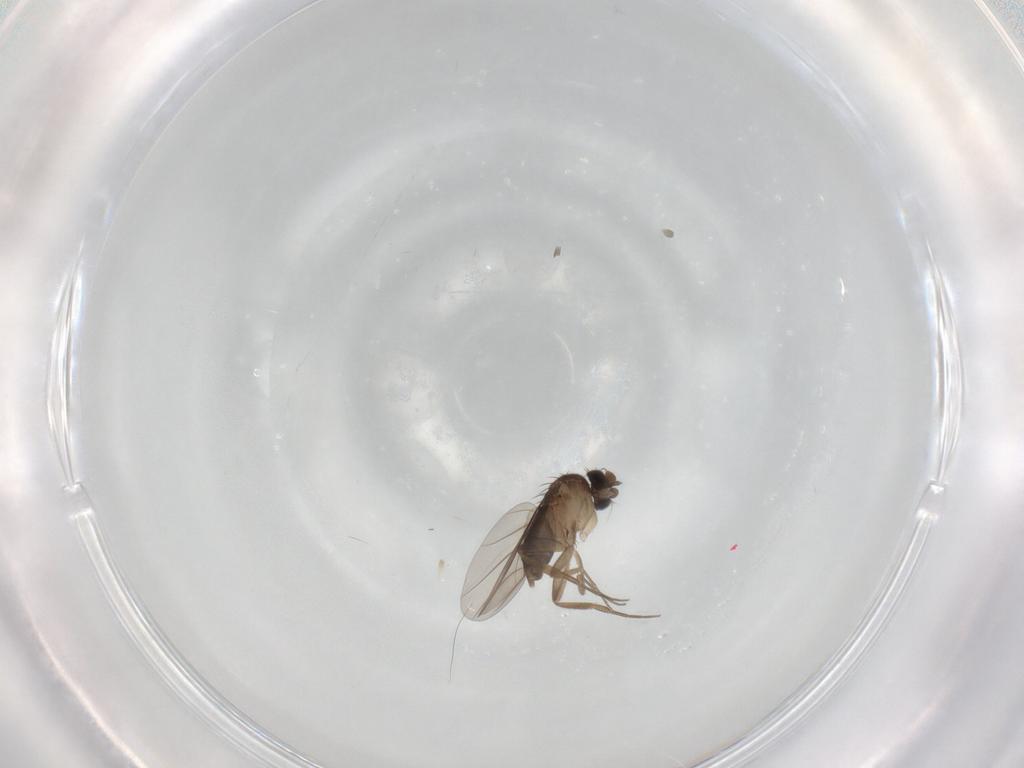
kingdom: Animalia
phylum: Arthropoda
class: Insecta
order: Diptera
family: Phoridae
